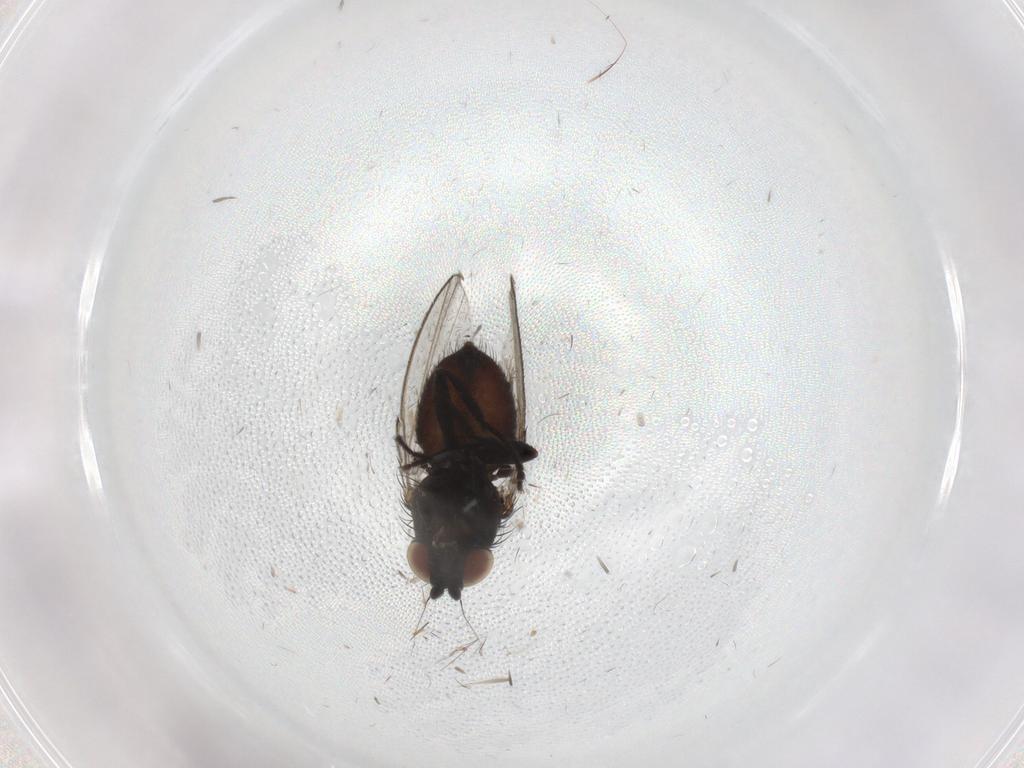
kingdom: Animalia
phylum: Arthropoda
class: Insecta
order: Diptera
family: Milichiidae
